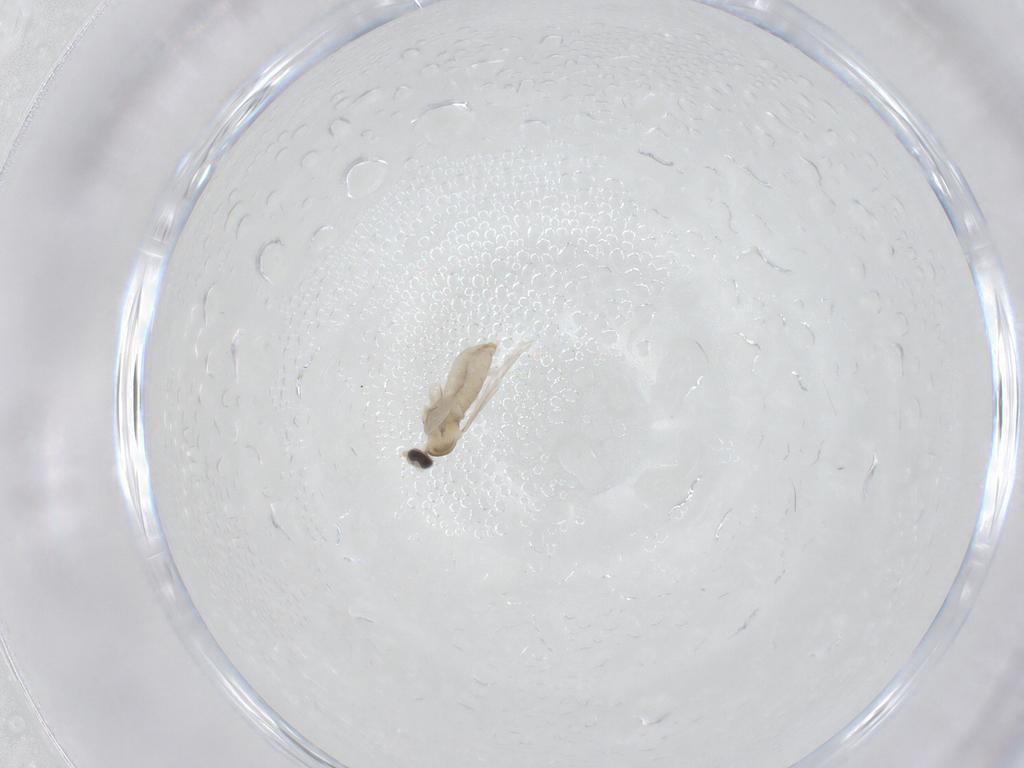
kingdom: Animalia
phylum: Arthropoda
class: Insecta
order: Diptera
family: Cecidomyiidae
